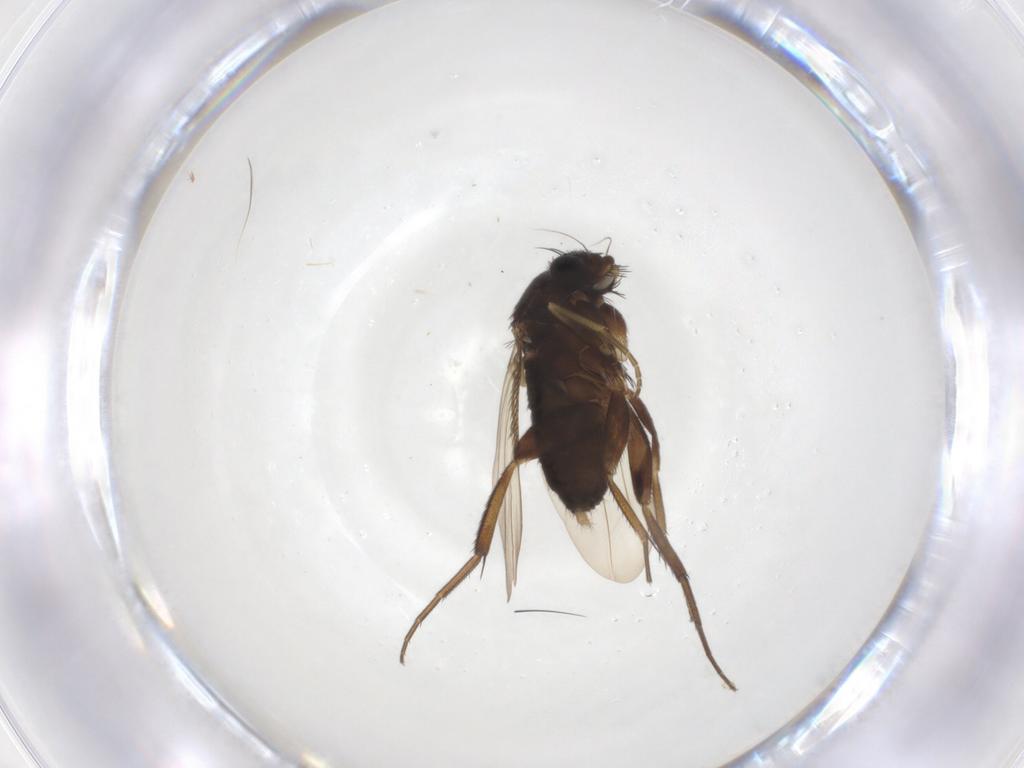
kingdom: Animalia
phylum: Arthropoda
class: Insecta
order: Diptera
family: Phoridae
